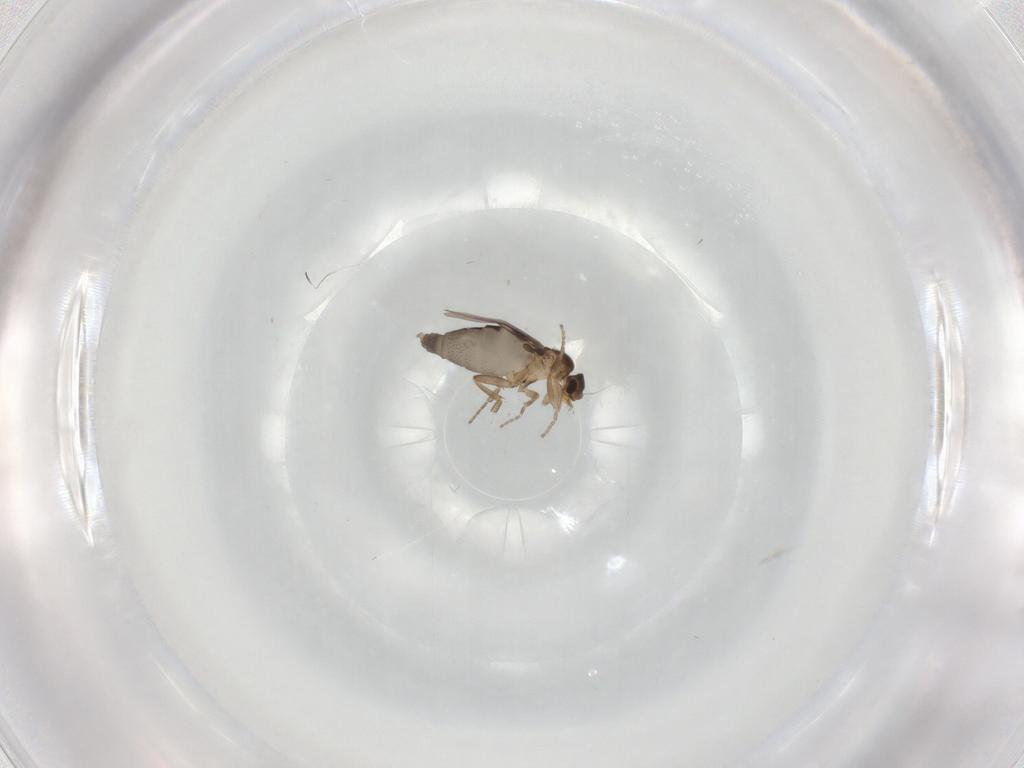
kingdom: Animalia
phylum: Arthropoda
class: Insecta
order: Diptera
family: Phoridae
